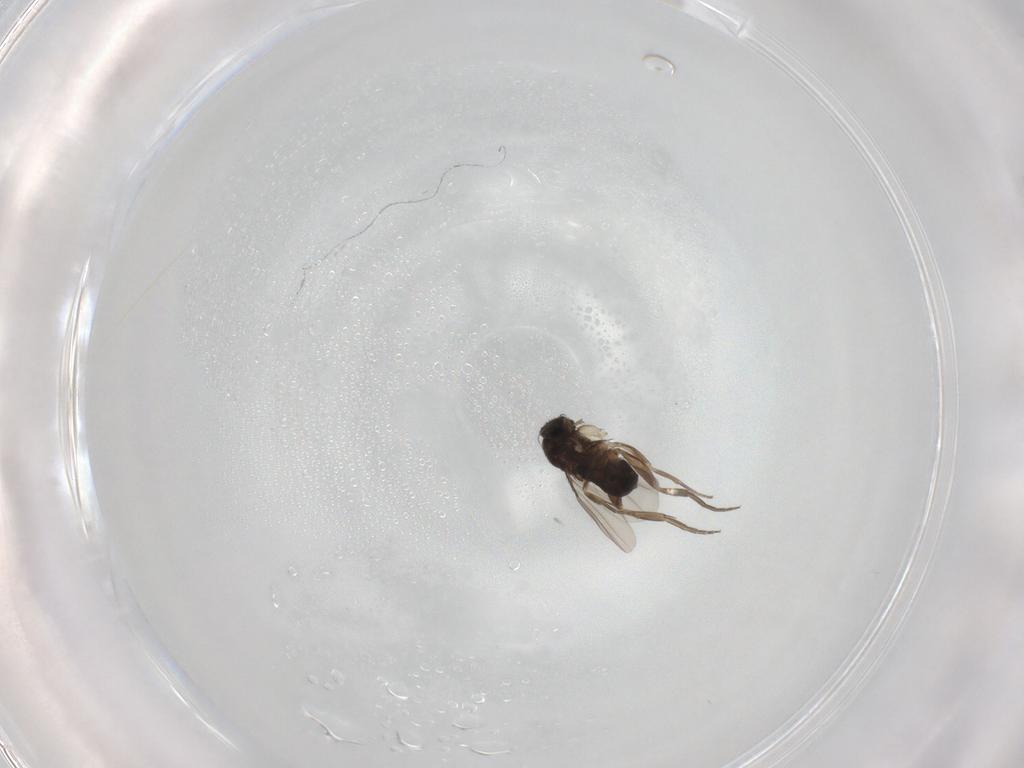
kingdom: Animalia
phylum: Arthropoda
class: Insecta
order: Diptera
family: Phoridae
